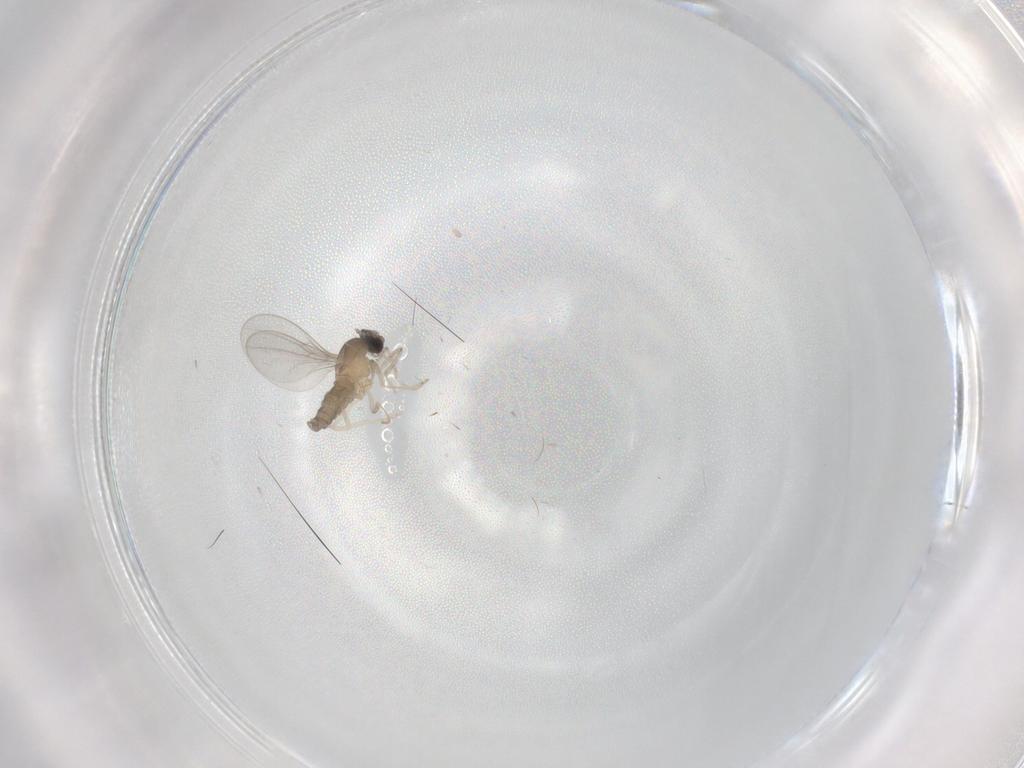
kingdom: Animalia
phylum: Arthropoda
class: Insecta
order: Diptera
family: Cecidomyiidae
